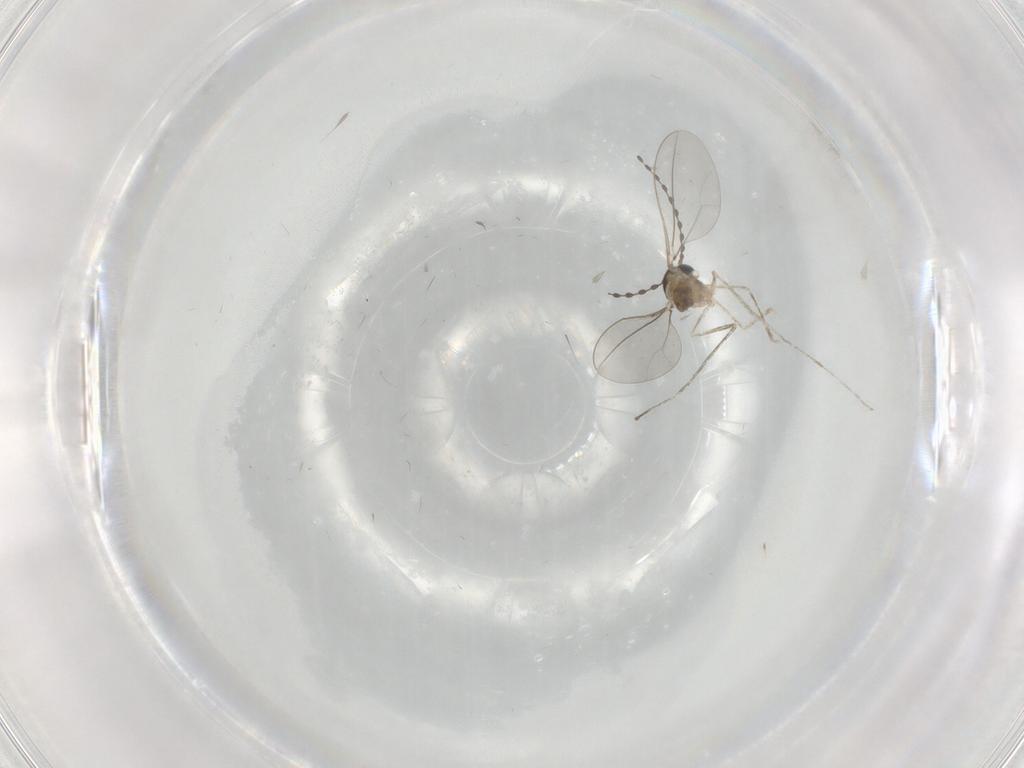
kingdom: Animalia
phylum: Arthropoda
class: Insecta
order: Diptera
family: Cecidomyiidae
